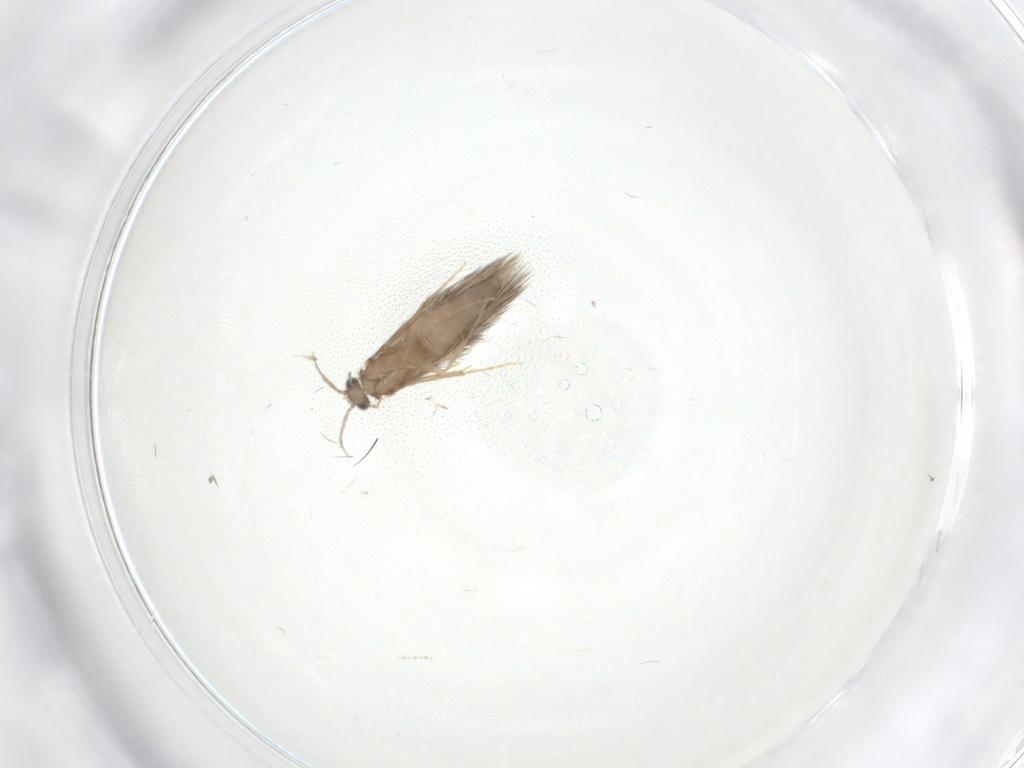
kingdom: Animalia
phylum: Arthropoda
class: Insecta
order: Trichoptera
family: Hydroptilidae
